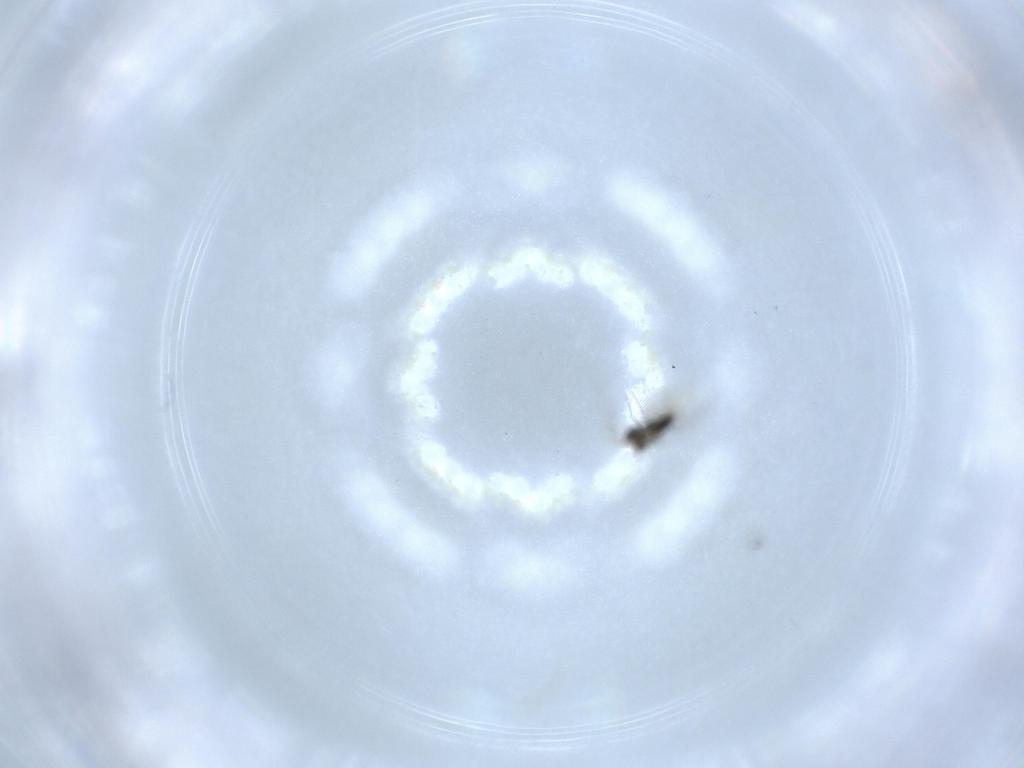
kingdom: Animalia
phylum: Arthropoda
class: Insecta
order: Hymenoptera
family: Aphelinidae
